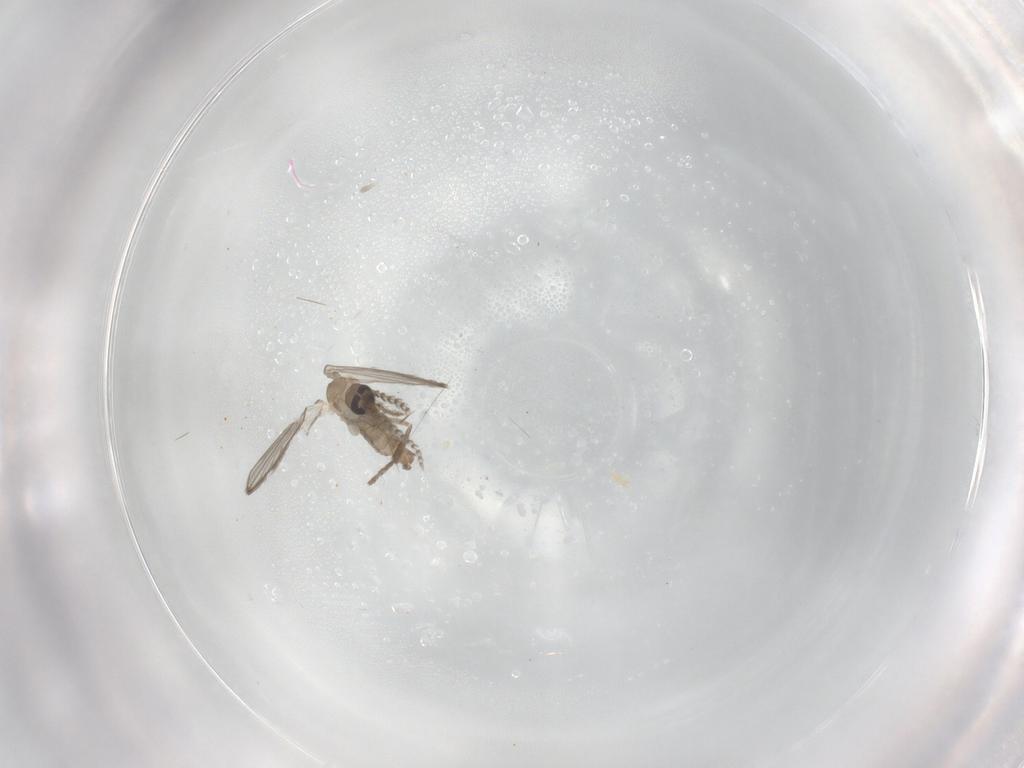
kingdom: Animalia
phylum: Arthropoda
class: Insecta
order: Diptera
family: Psychodidae
